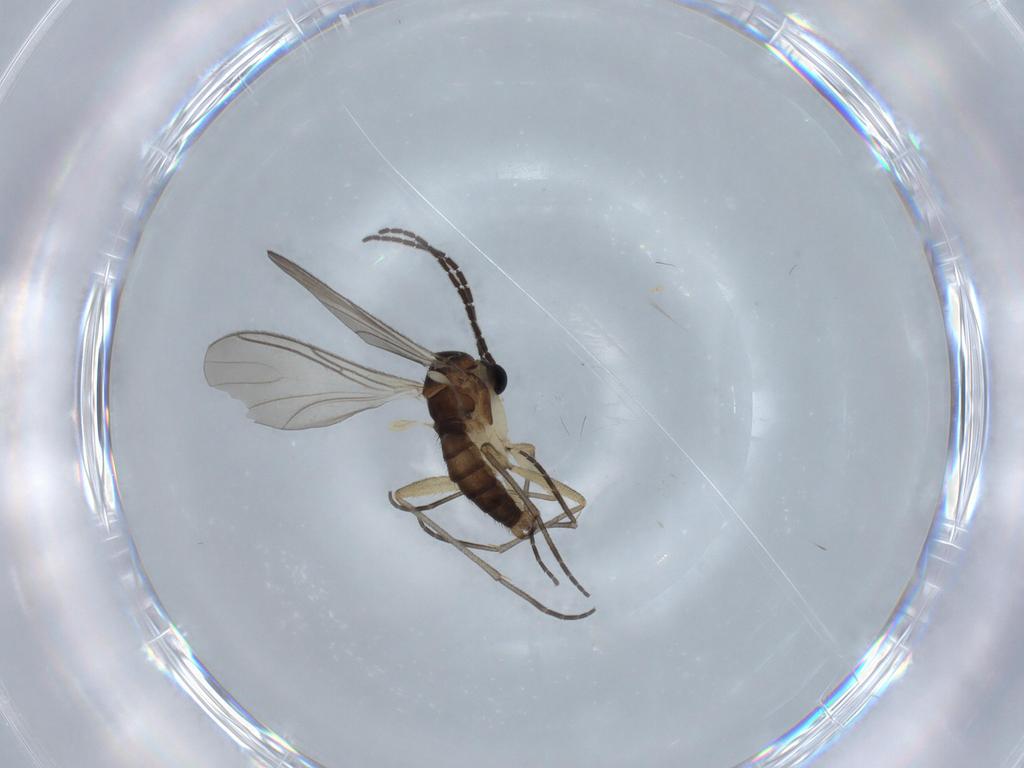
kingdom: Animalia
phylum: Arthropoda
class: Insecta
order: Diptera
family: Sciaridae
